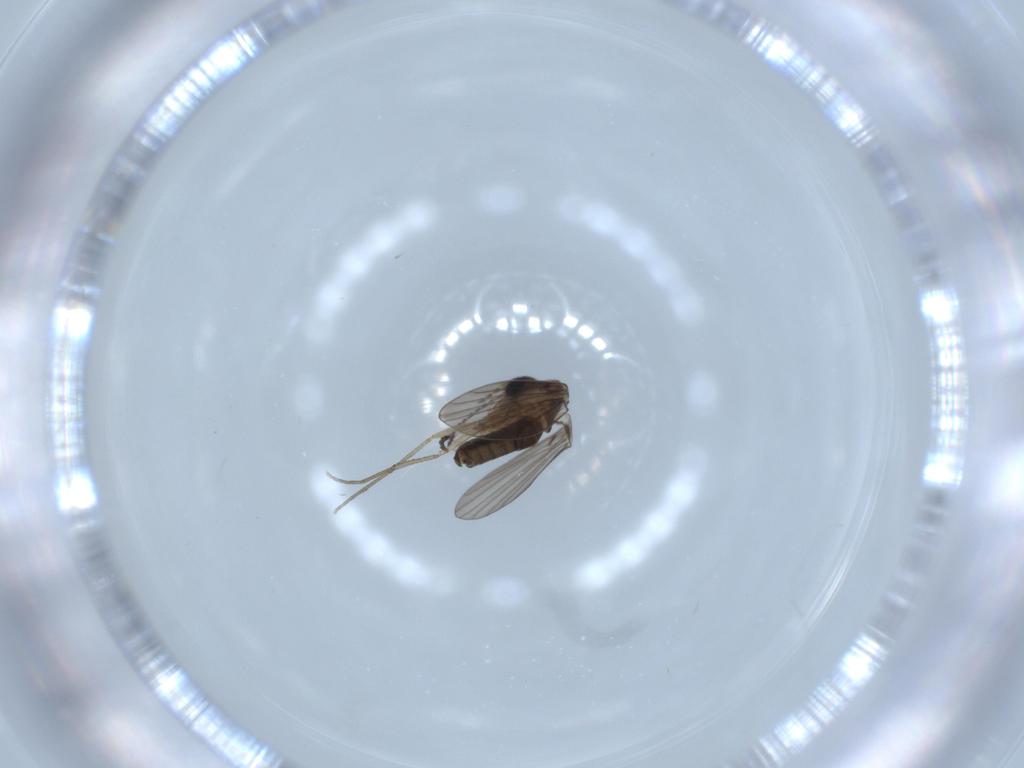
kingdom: Animalia
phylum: Arthropoda
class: Insecta
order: Diptera
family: Psychodidae
